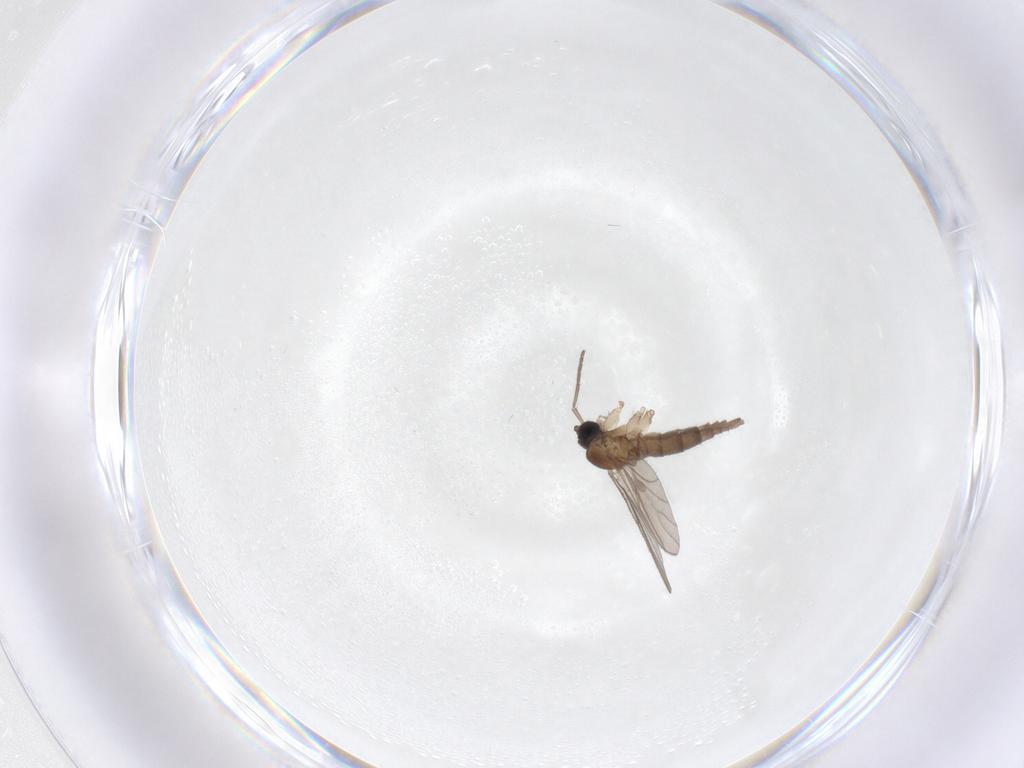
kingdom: Animalia
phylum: Arthropoda
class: Insecta
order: Diptera
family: Sciaridae
